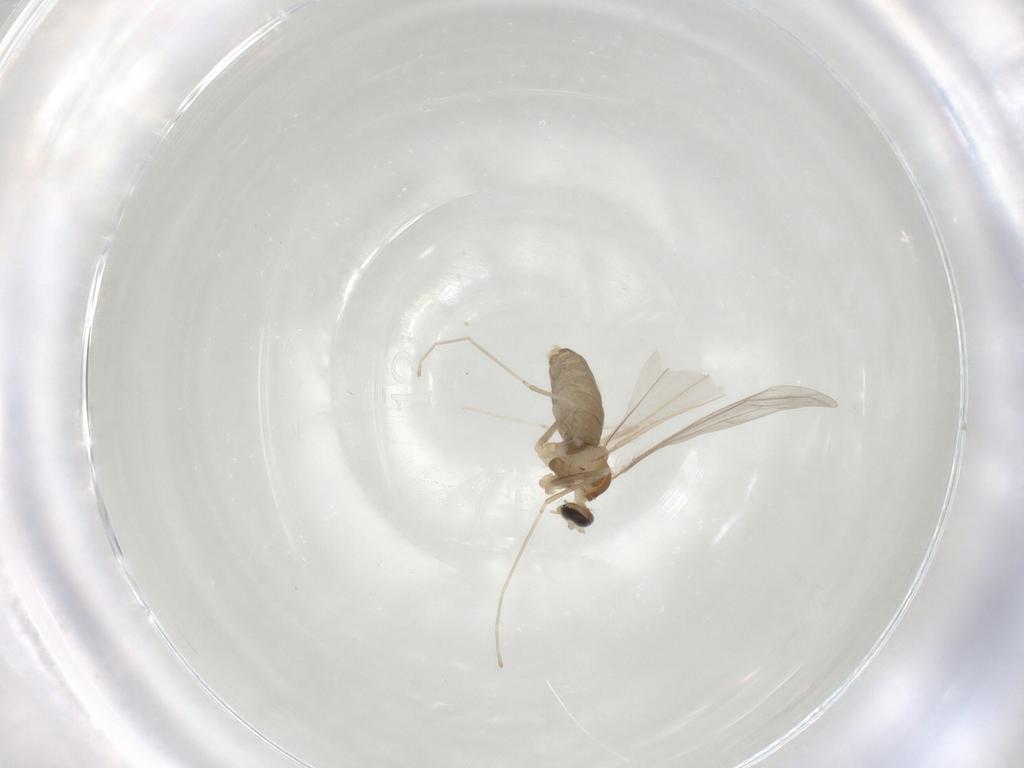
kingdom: Animalia
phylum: Arthropoda
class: Insecta
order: Diptera
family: Cecidomyiidae
